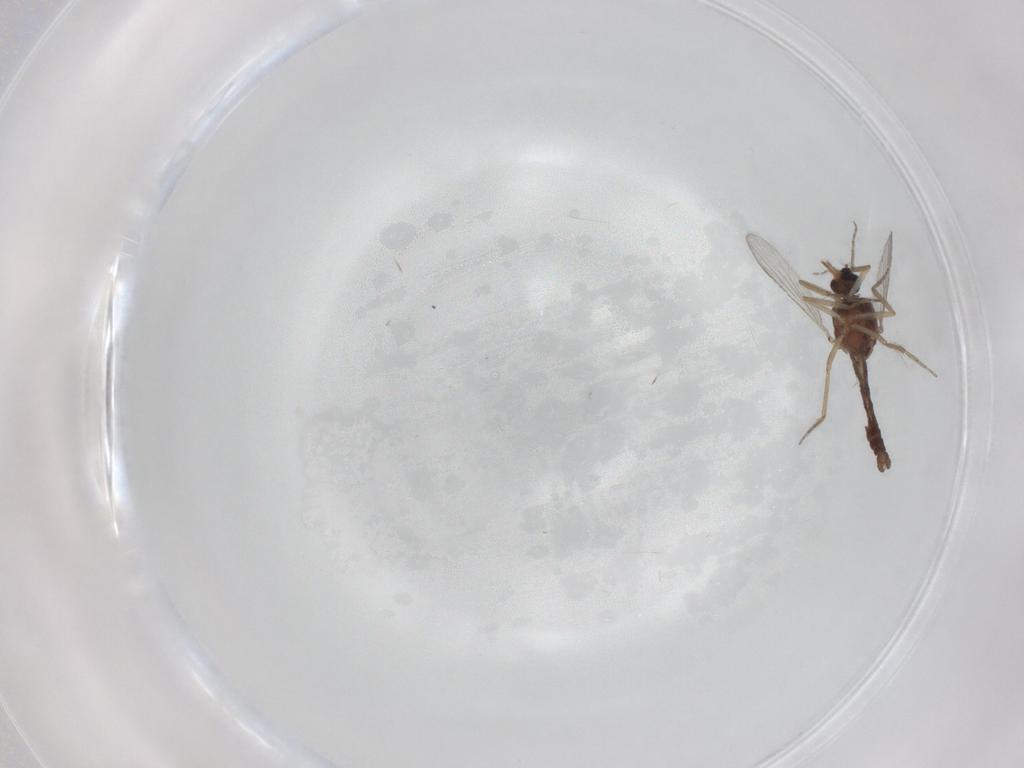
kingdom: Animalia
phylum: Arthropoda
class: Insecta
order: Diptera
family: Ceratopogonidae
